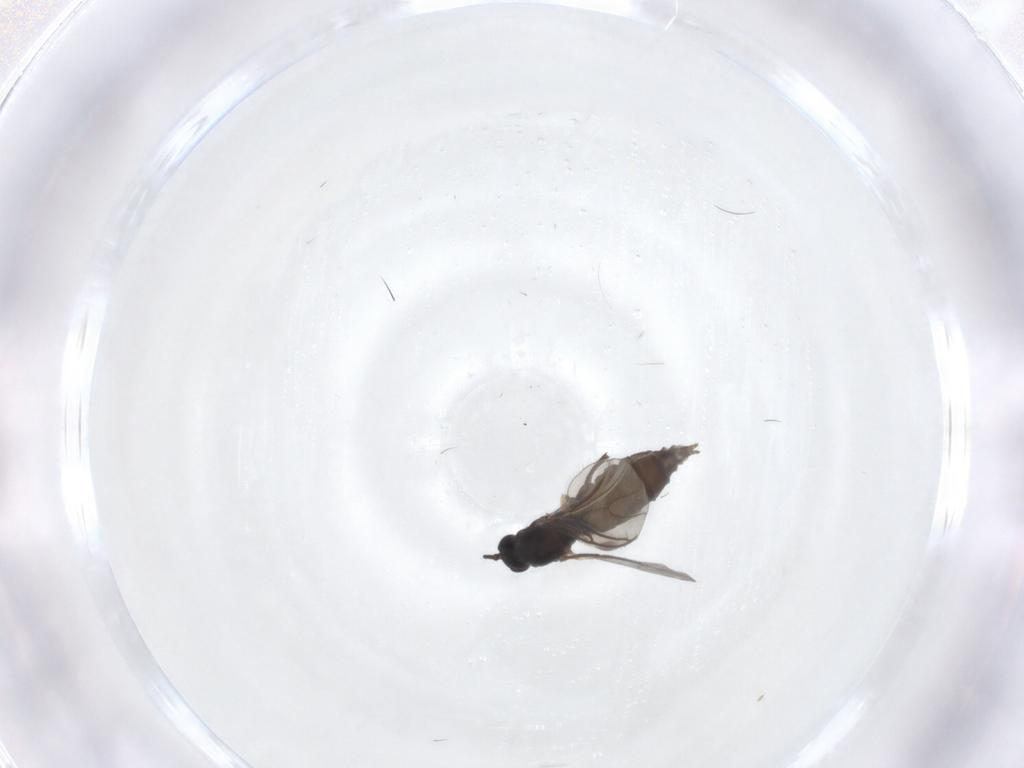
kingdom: Animalia
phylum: Arthropoda
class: Insecta
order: Diptera
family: Sciaridae
